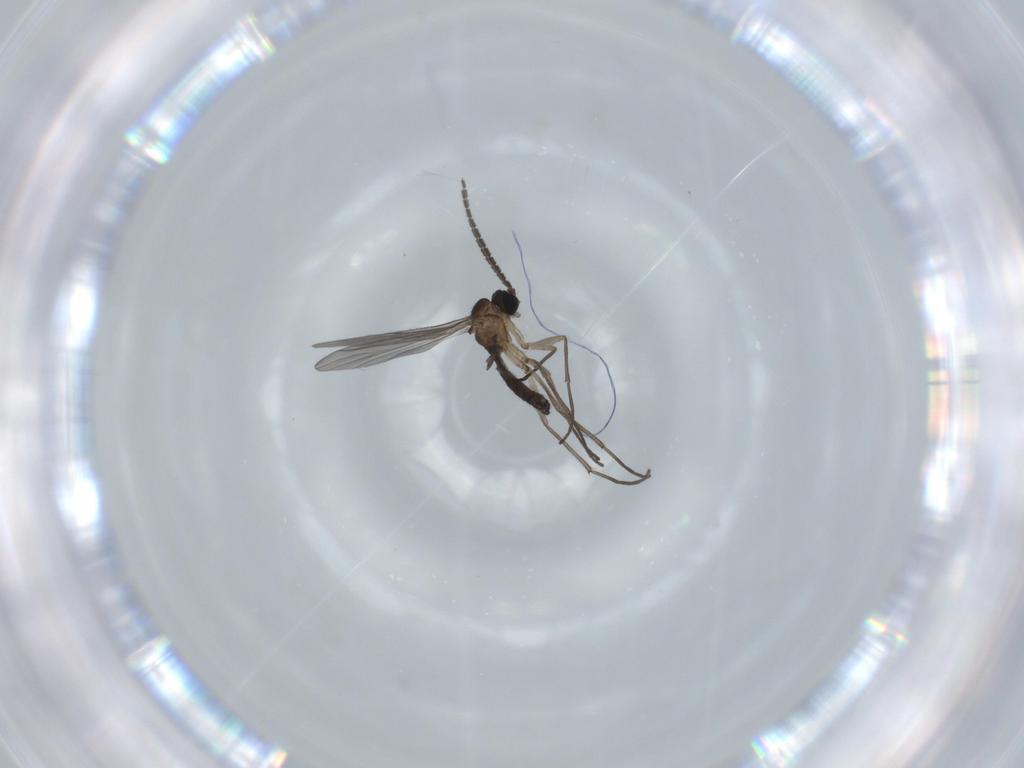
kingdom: Animalia
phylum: Arthropoda
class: Insecta
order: Diptera
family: Sciaridae
